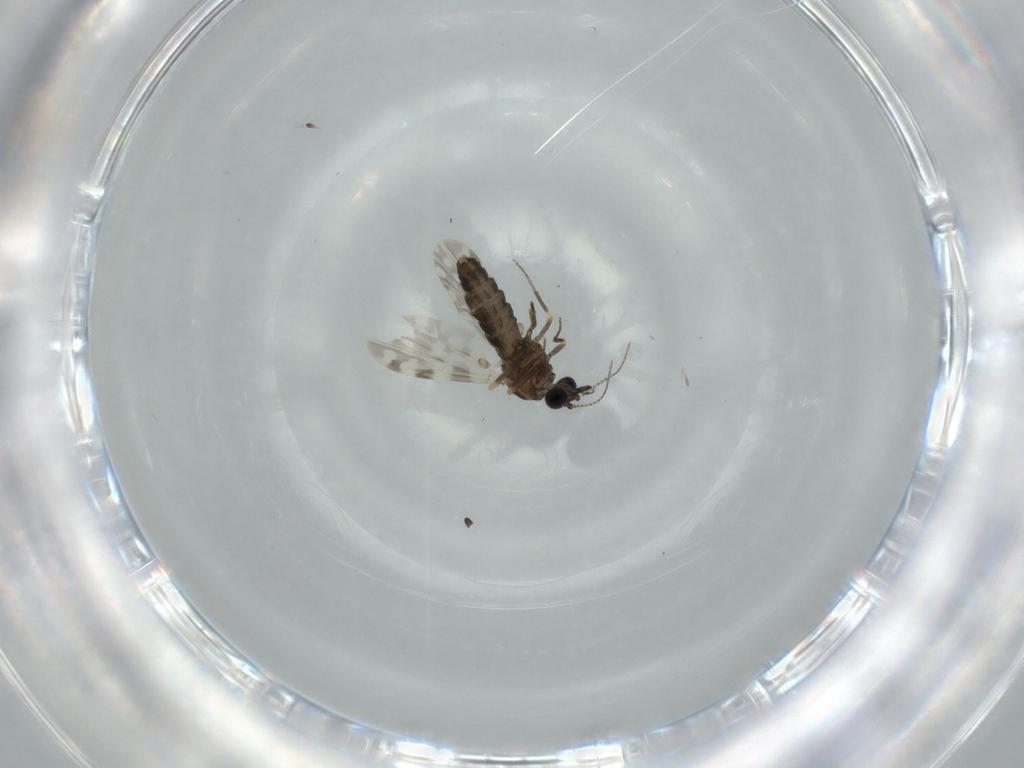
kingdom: Animalia
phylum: Arthropoda
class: Insecta
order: Diptera
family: Ceratopogonidae
